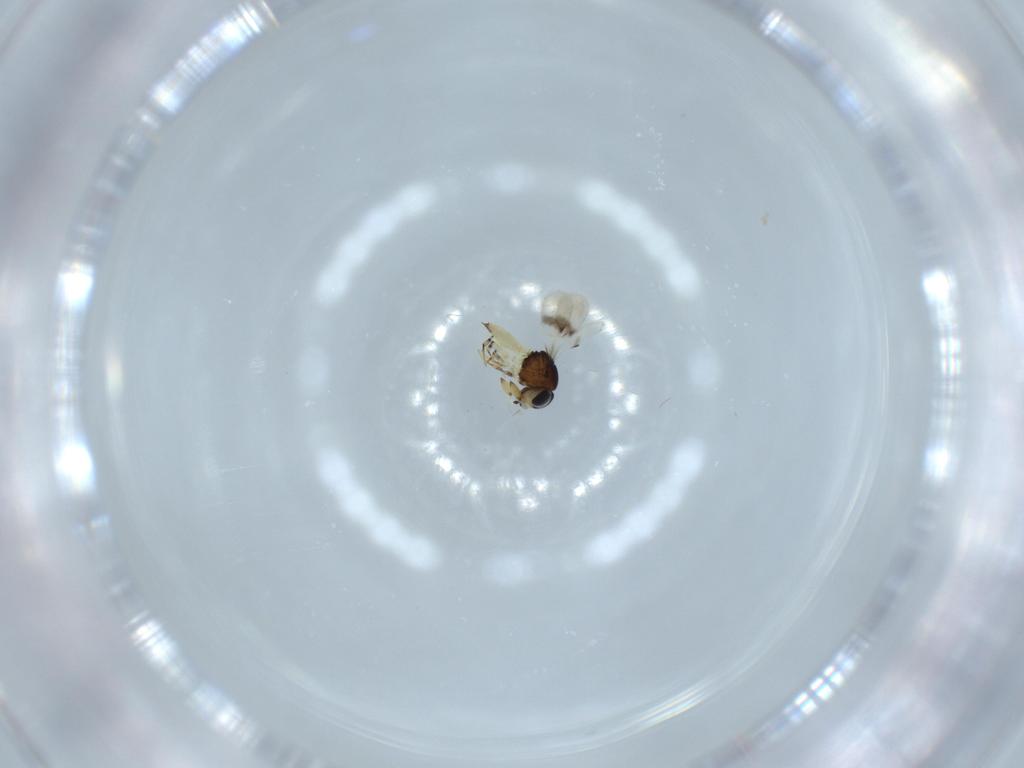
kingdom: Animalia
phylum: Arthropoda
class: Insecta
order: Hymenoptera
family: Scelionidae
